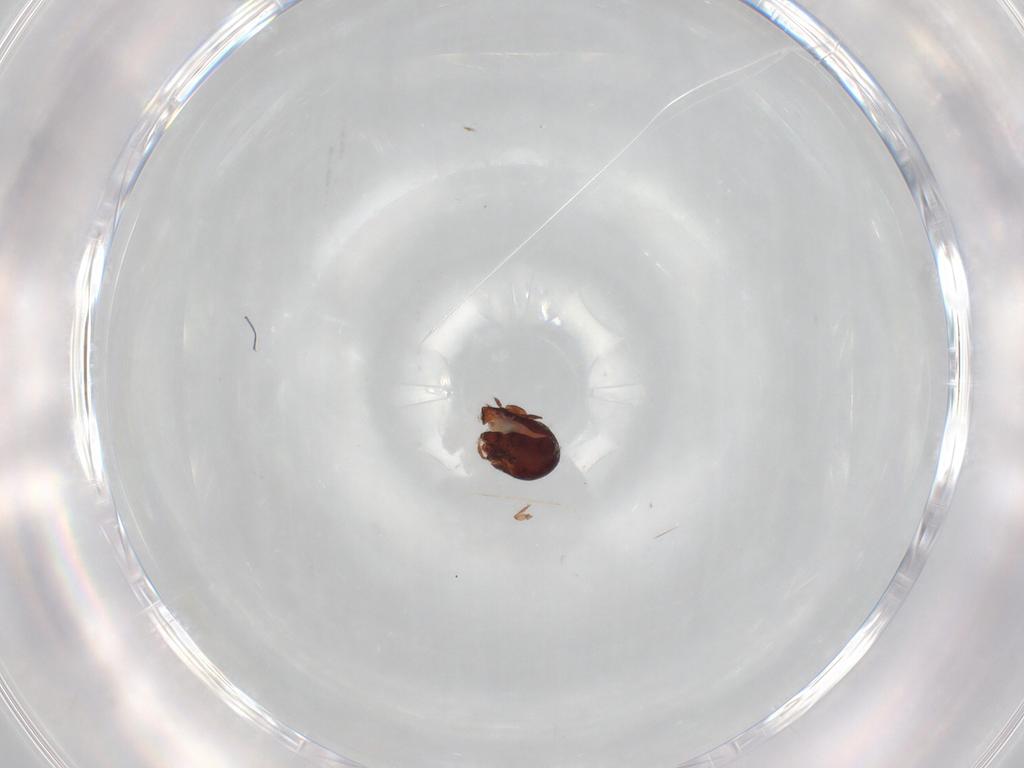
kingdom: Animalia
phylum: Arthropoda
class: Arachnida
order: Sarcoptiformes
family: Humerobatidae
